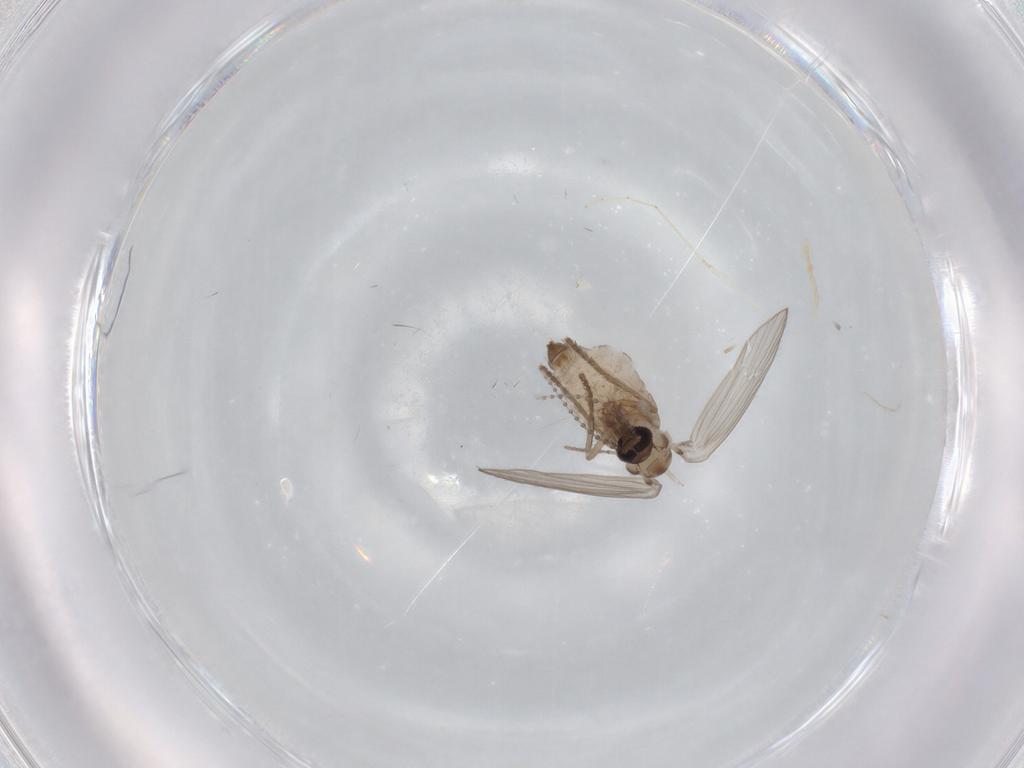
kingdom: Animalia
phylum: Arthropoda
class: Insecta
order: Diptera
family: Psychodidae
